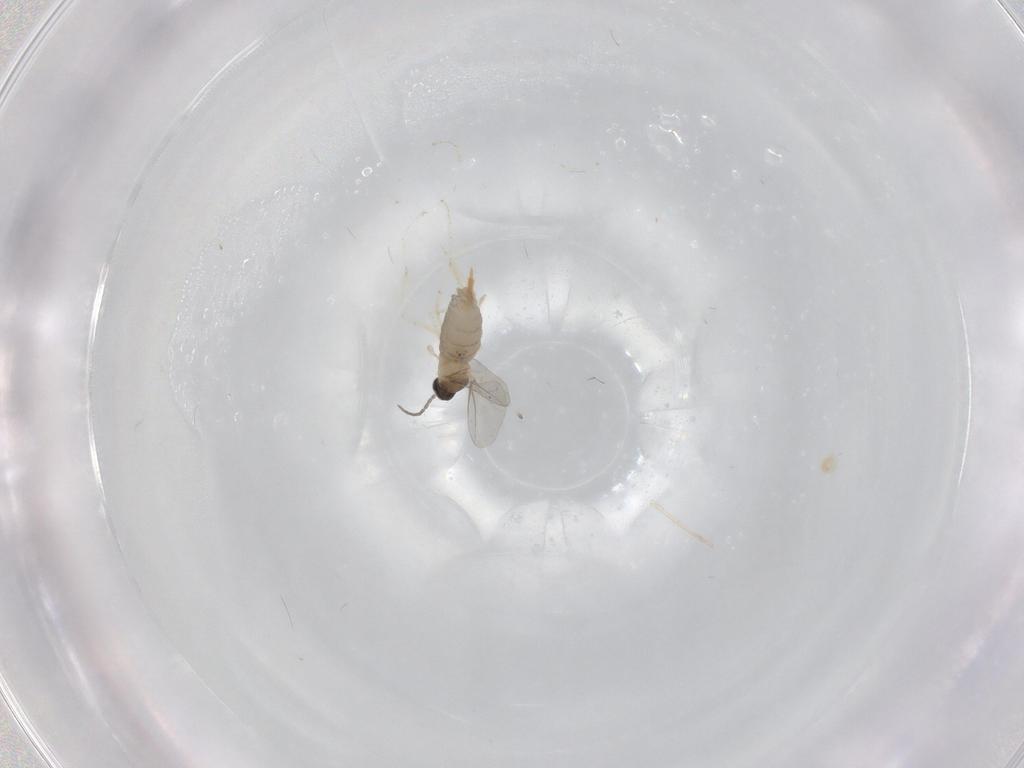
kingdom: Animalia
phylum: Arthropoda
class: Insecta
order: Diptera
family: Cecidomyiidae
